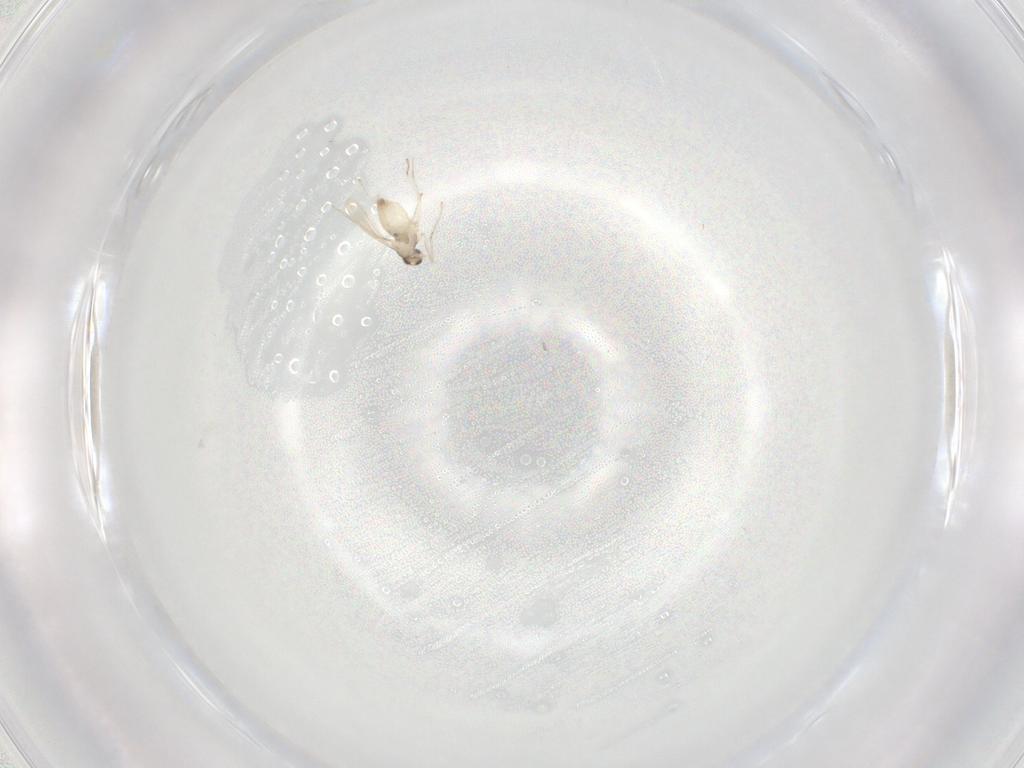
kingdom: Animalia
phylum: Arthropoda
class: Insecta
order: Diptera
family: Cecidomyiidae
